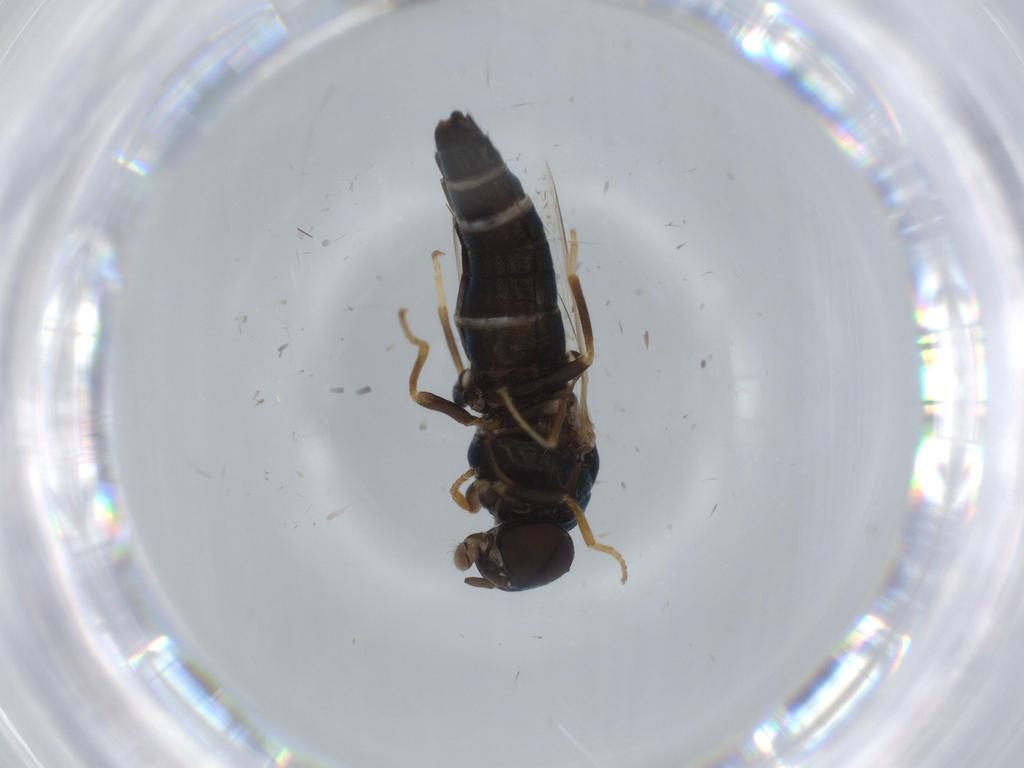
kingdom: Animalia
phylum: Arthropoda
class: Insecta
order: Diptera
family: Scenopinidae
